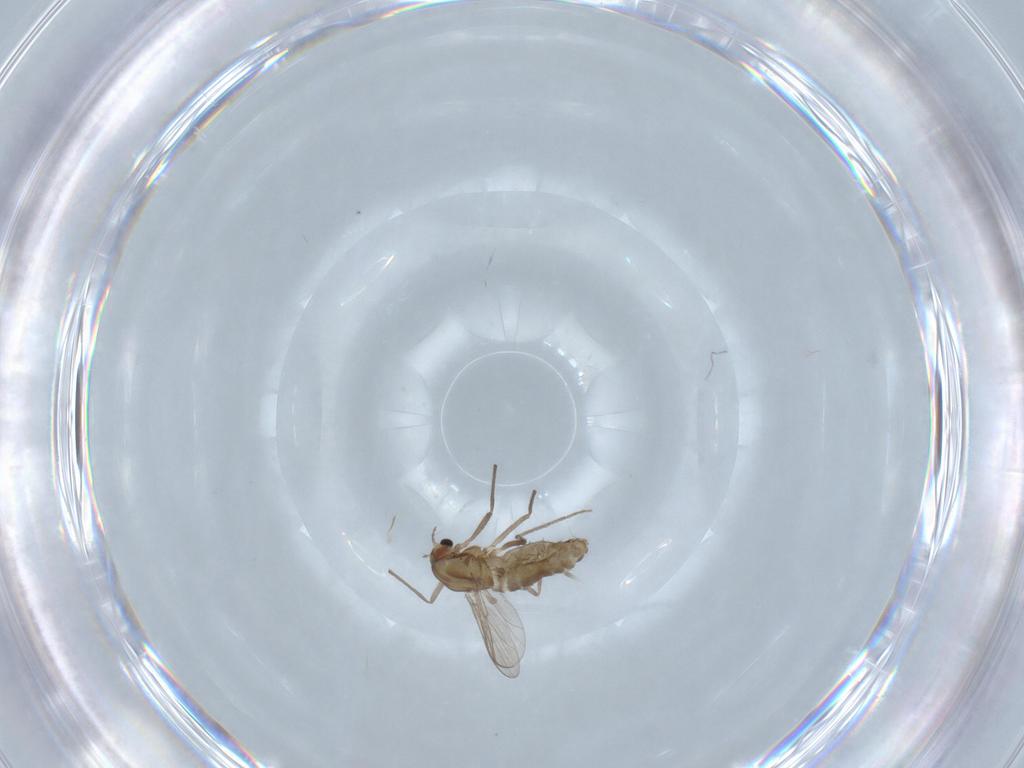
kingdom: Animalia
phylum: Arthropoda
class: Insecta
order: Diptera
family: Chironomidae
